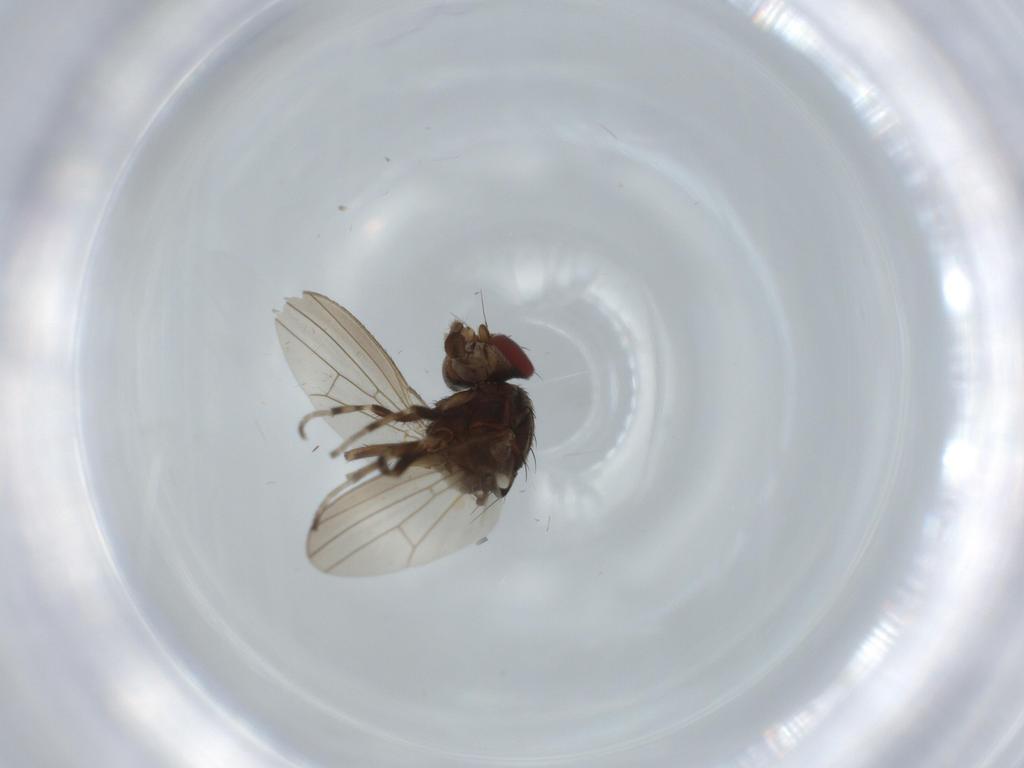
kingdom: Animalia
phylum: Arthropoda
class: Insecta
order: Diptera
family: Heleomyzidae
